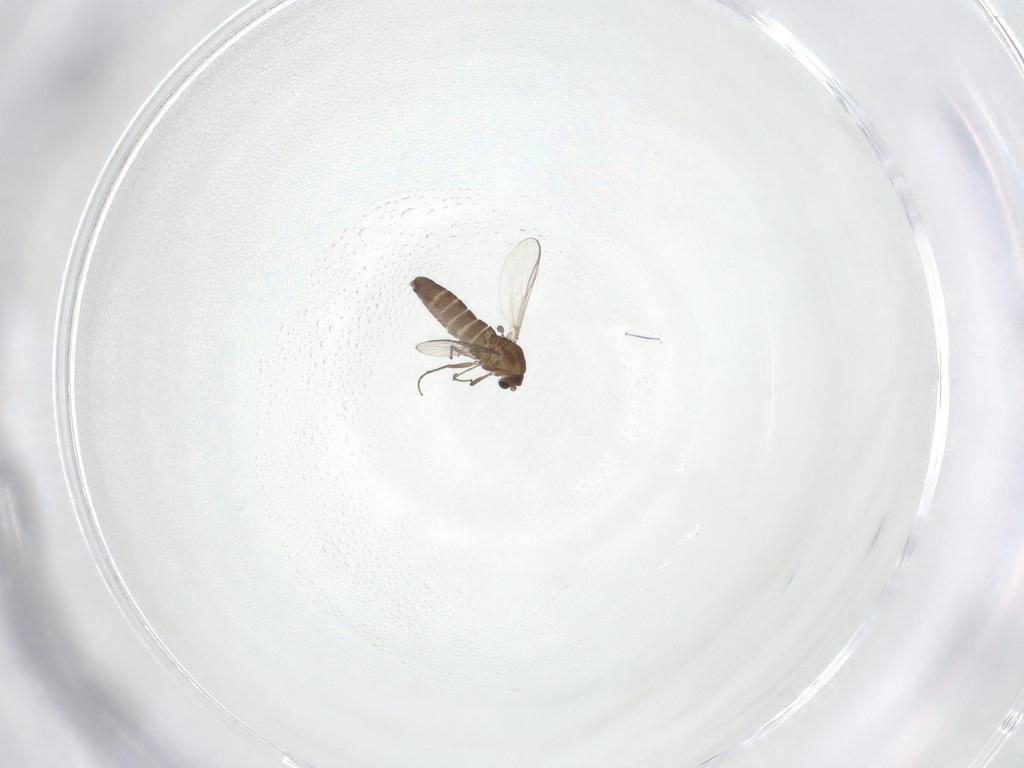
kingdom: Animalia
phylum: Arthropoda
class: Insecta
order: Diptera
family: Chironomidae
